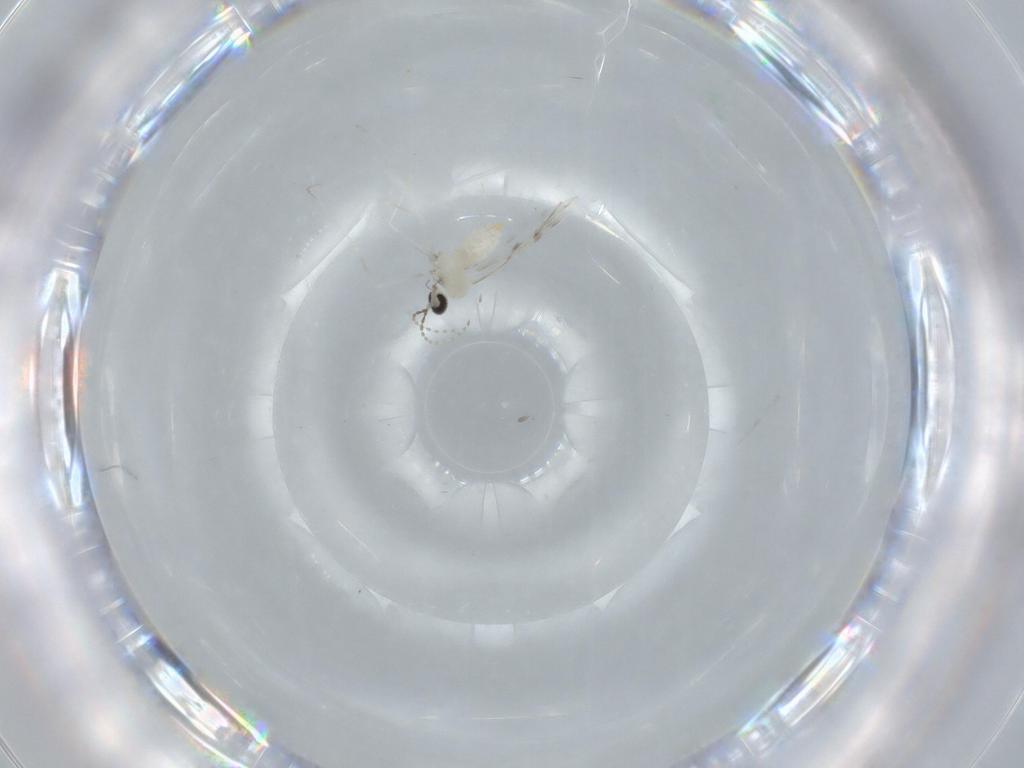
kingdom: Animalia
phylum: Arthropoda
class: Insecta
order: Diptera
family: Cecidomyiidae
